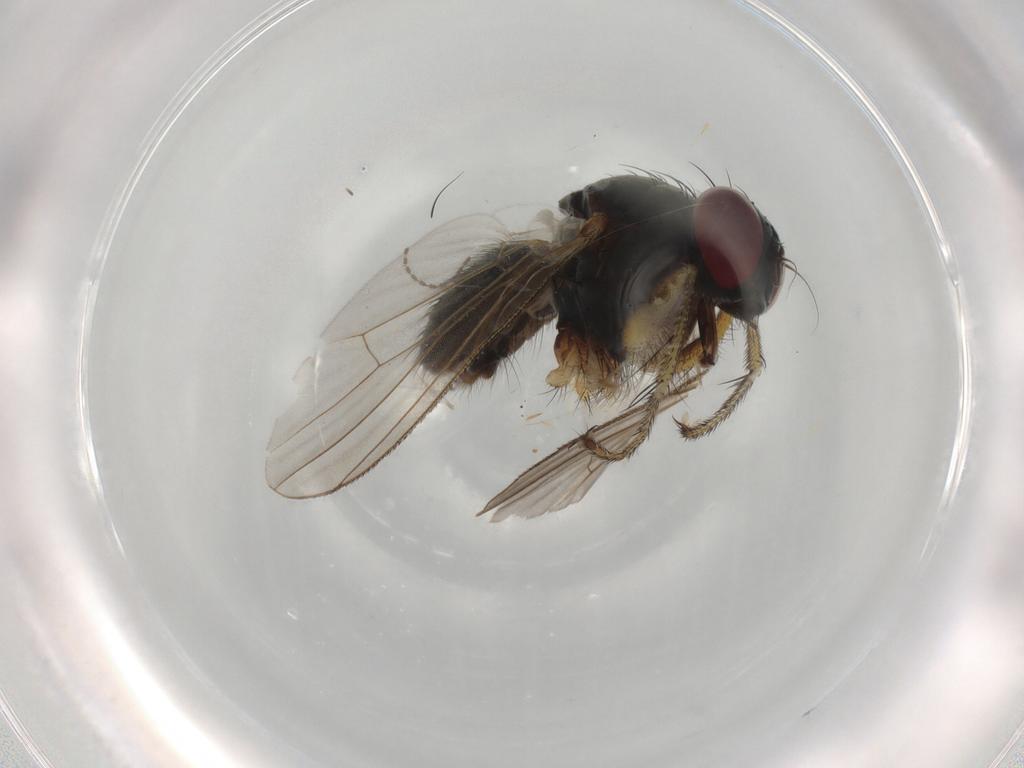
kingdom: Animalia
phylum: Arthropoda
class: Insecta
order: Diptera
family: Muscidae
